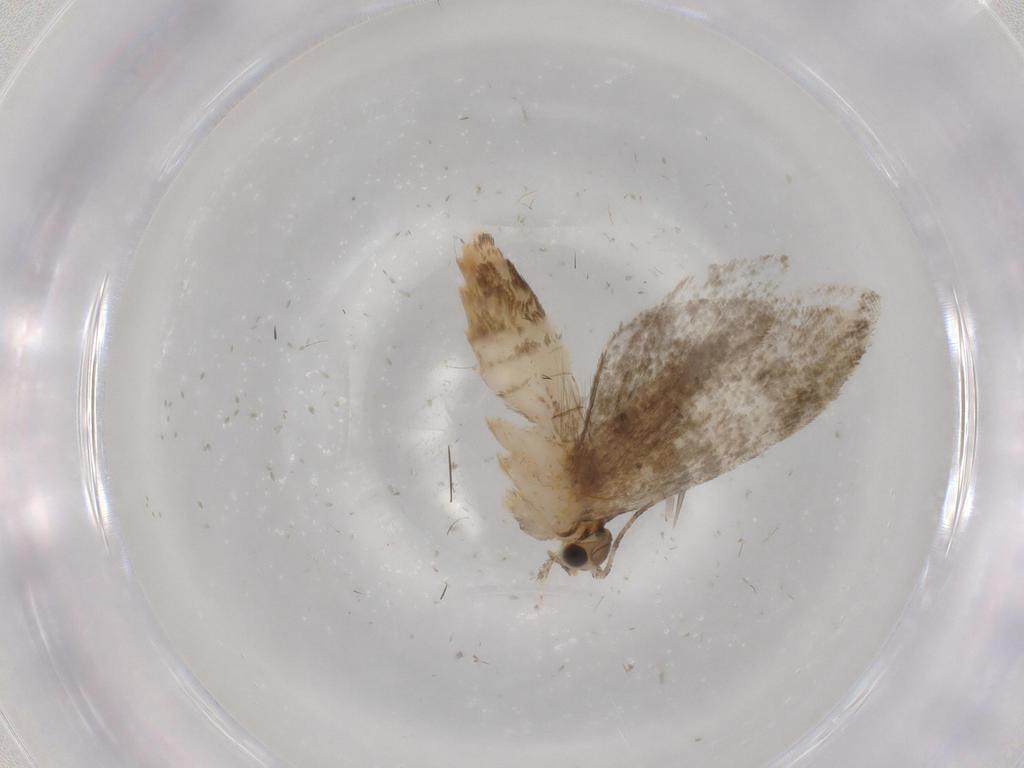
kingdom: Animalia
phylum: Arthropoda
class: Insecta
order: Lepidoptera
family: Tineidae
